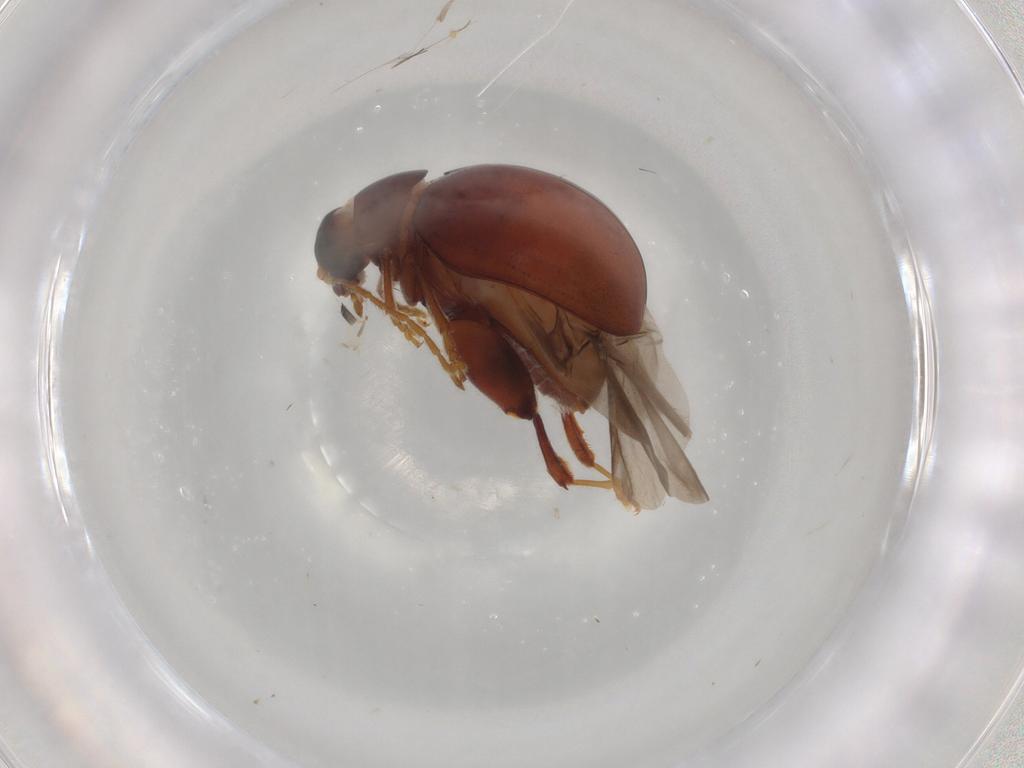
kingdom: Animalia
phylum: Arthropoda
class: Insecta
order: Coleoptera
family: Chrysomelidae
